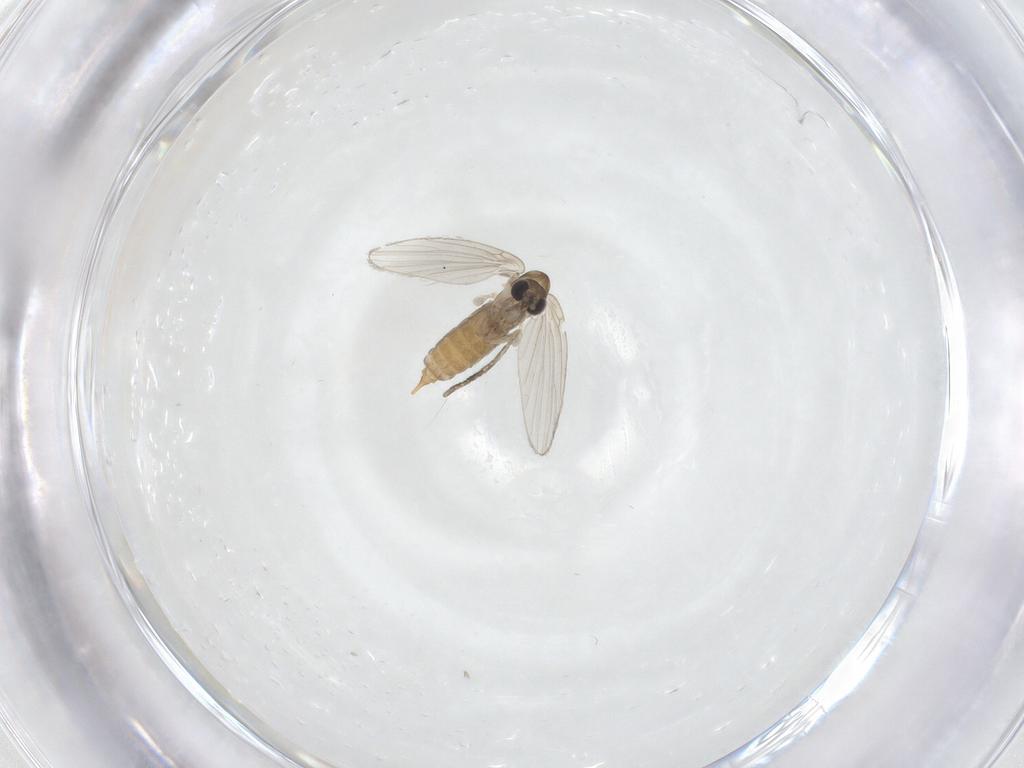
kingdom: Animalia
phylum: Arthropoda
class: Insecta
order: Diptera
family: Psychodidae
